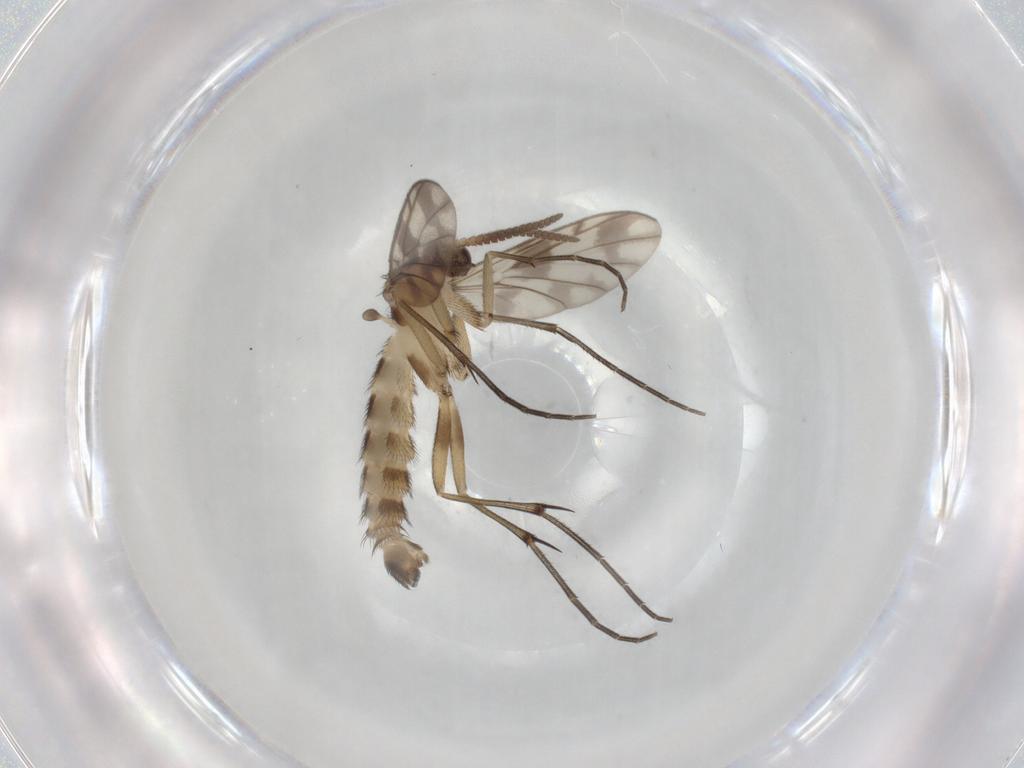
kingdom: Animalia
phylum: Arthropoda
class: Insecta
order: Diptera
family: Keroplatidae
